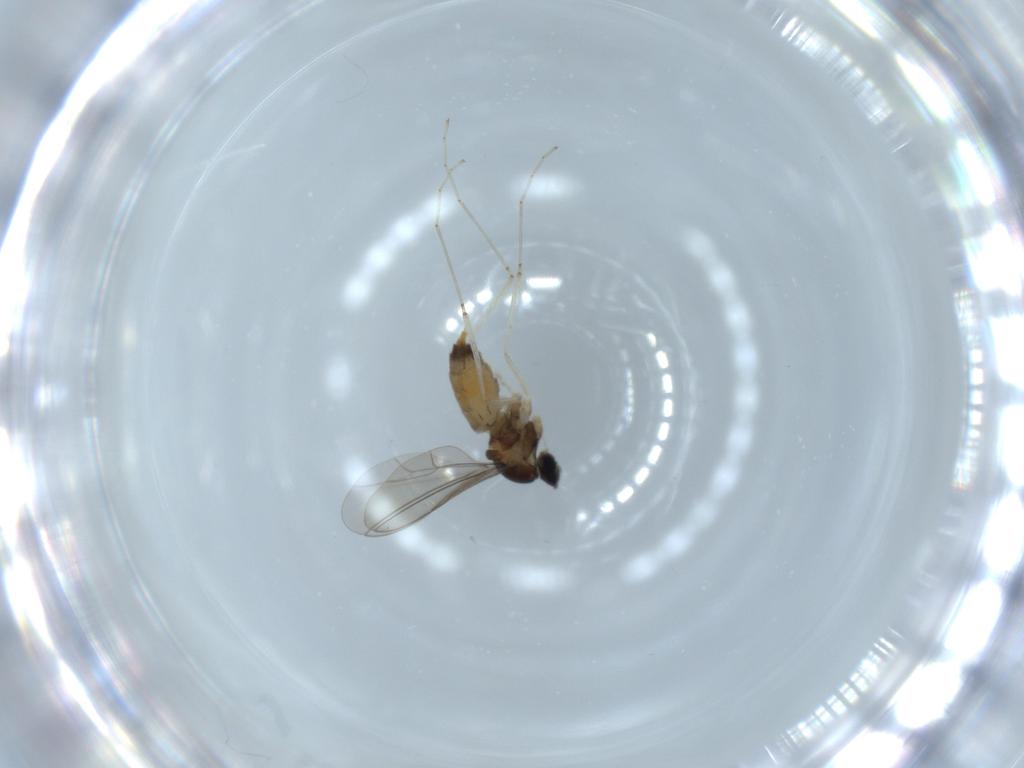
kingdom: Animalia
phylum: Arthropoda
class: Insecta
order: Diptera
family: Cecidomyiidae
